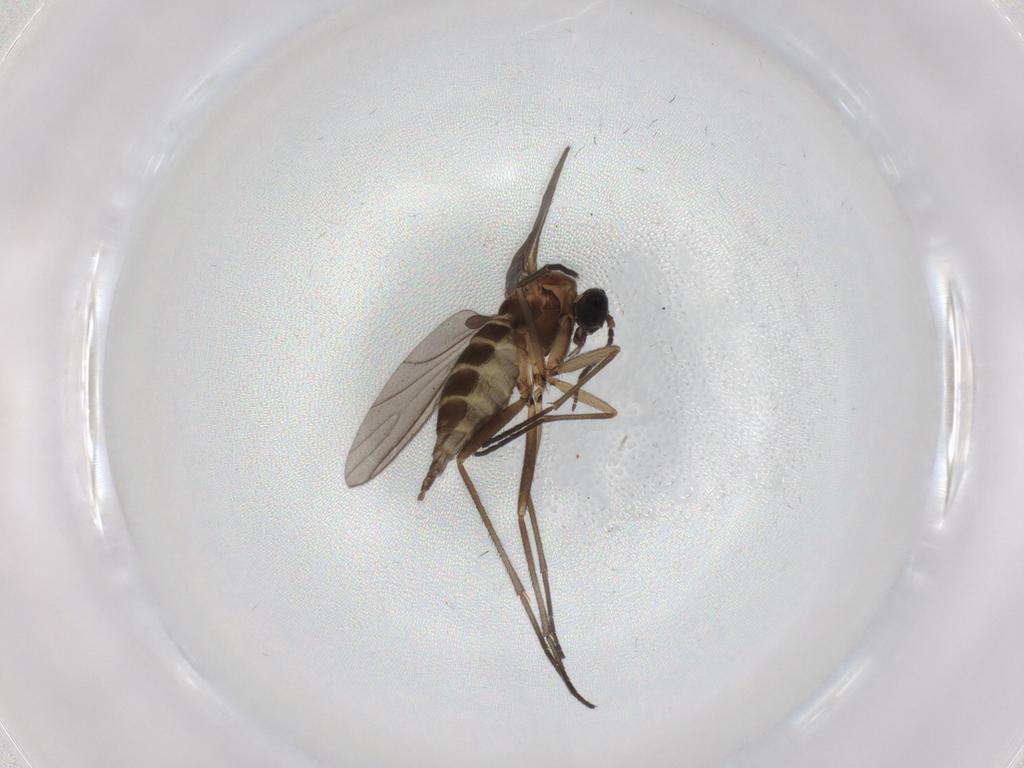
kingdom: Animalia
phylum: Arthropoda
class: Insecta
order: Diptera
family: Sciaridae
